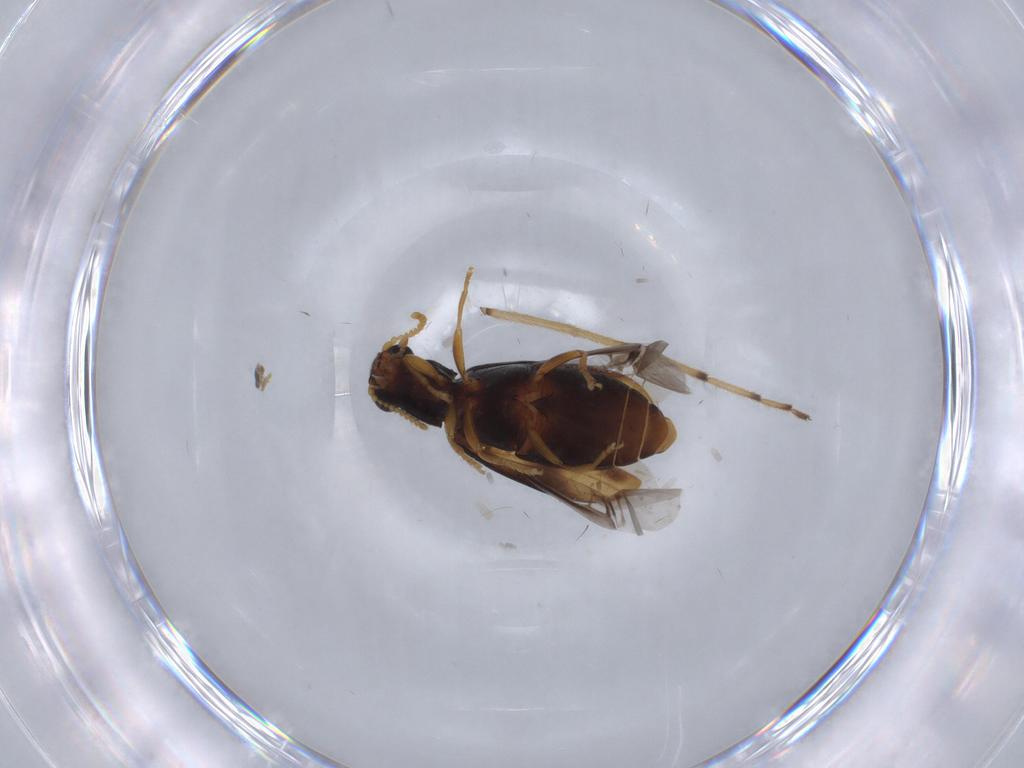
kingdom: Animalia
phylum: Arthropoda
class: Insecta
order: Coleoptera
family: Mycteridae
